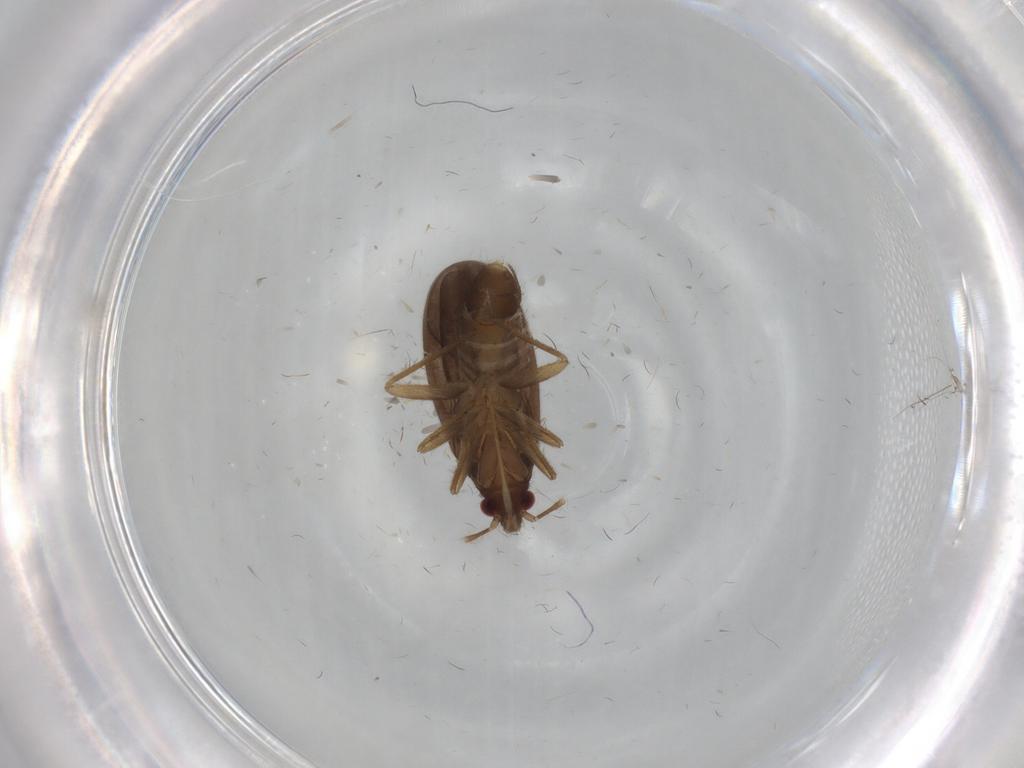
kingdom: Animalia
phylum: Arthropoda
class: Insecta
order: Hemiptera
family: Ceratocombidae
